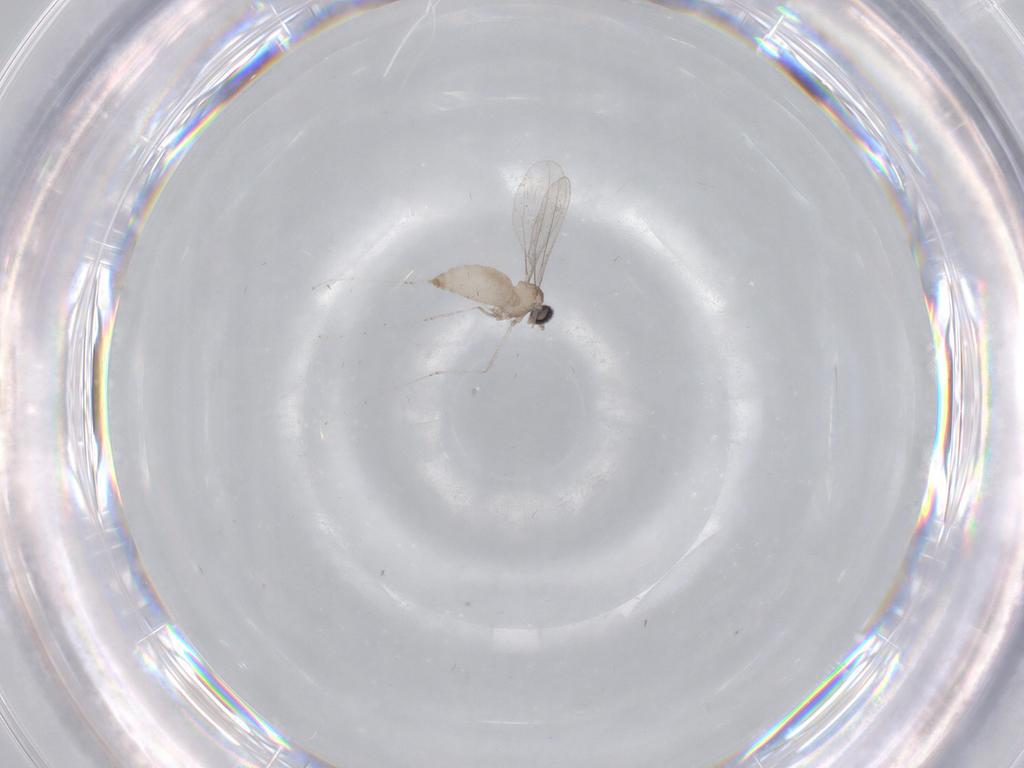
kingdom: Animalia
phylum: Arthropoda
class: Insecta
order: Diptera
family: Cecidomyiidae
